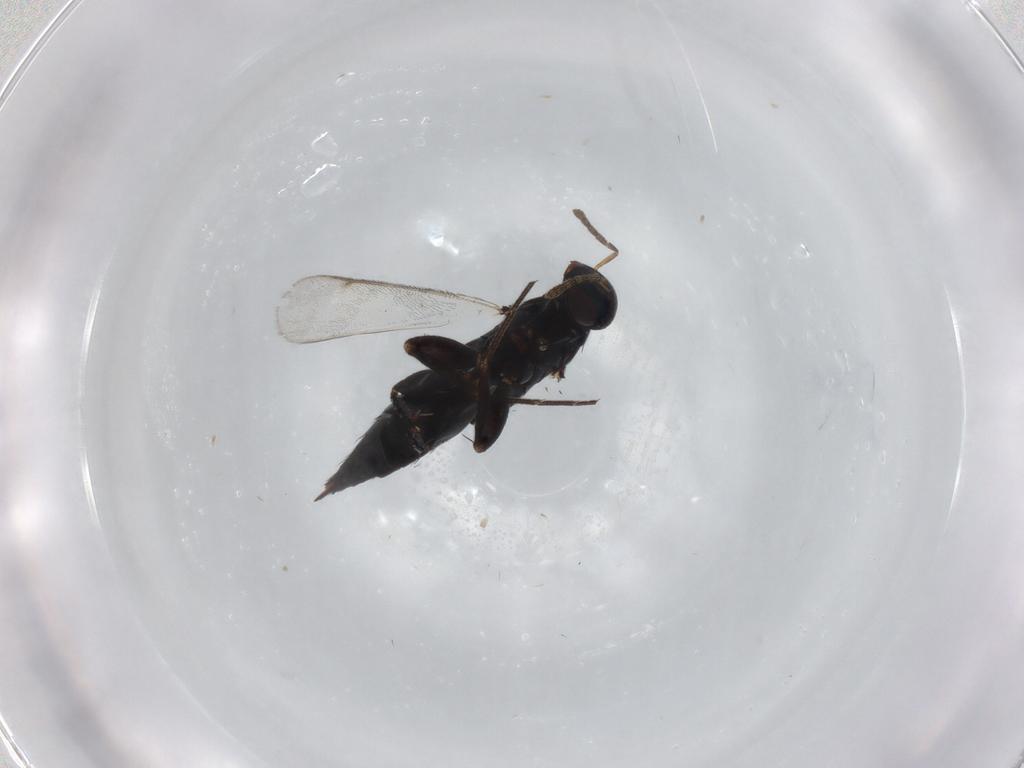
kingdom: Animalia
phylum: Arthropoda
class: Insecta
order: Hymenoptera
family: Eulophidae
